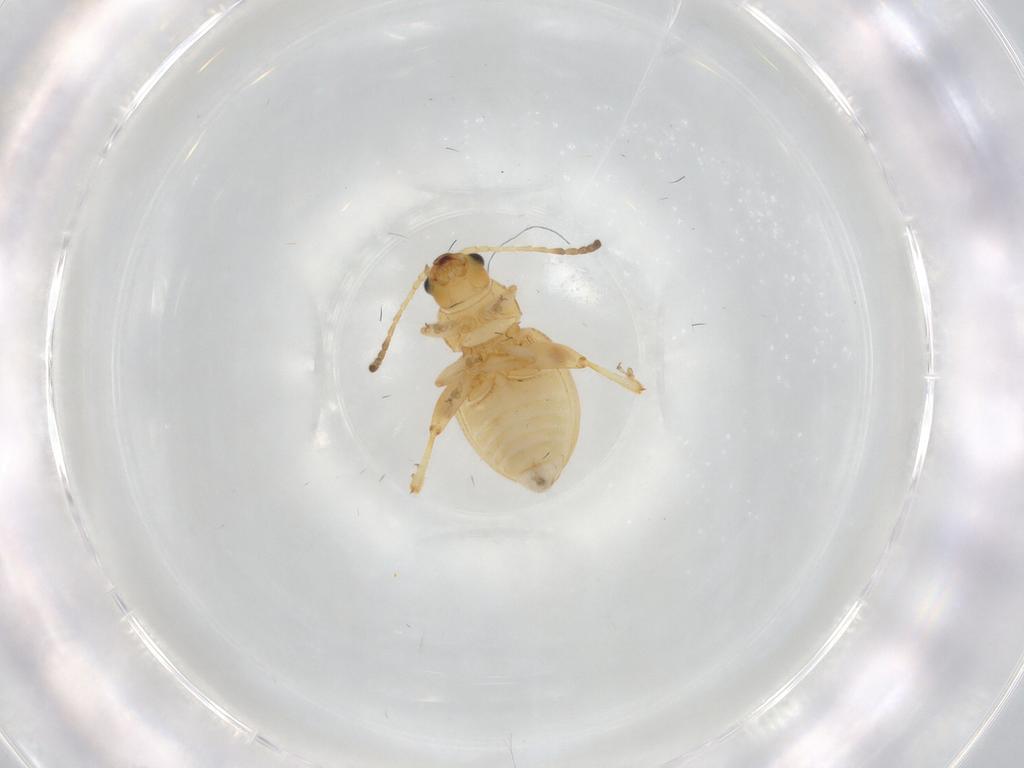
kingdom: Animalia
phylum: Arthropoda
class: Insecta
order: Coleoptera
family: Chrysomelidae
